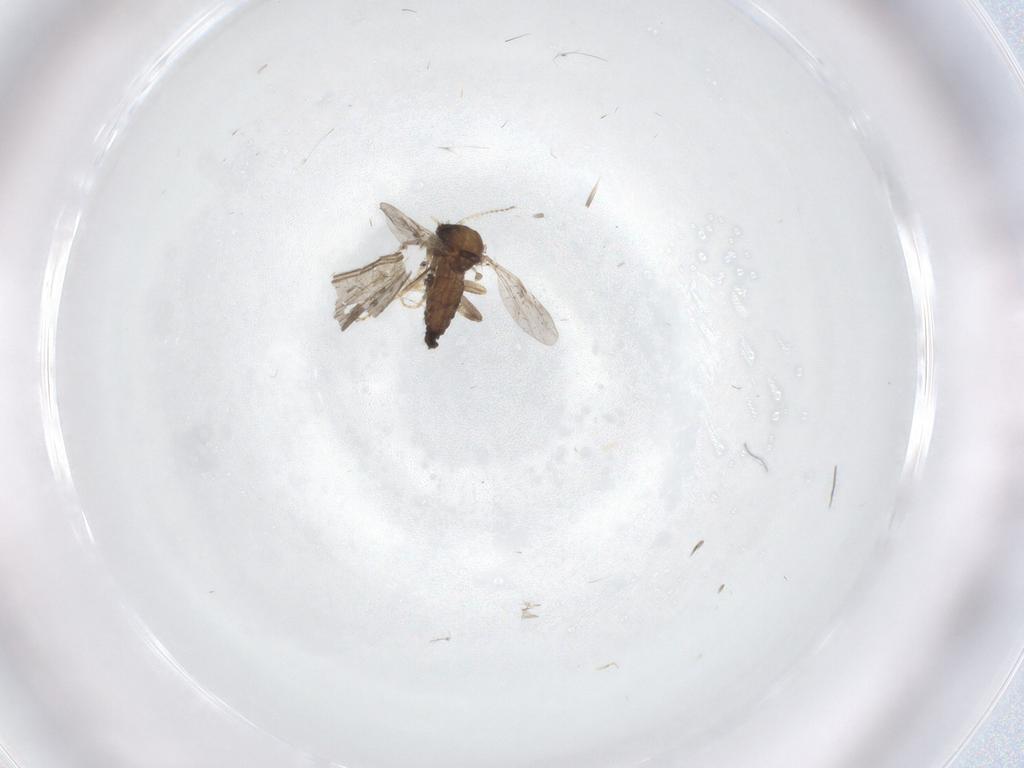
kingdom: Animalia
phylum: Arthropoda
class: Insecta
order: Diptera
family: Ceratopogonidae
